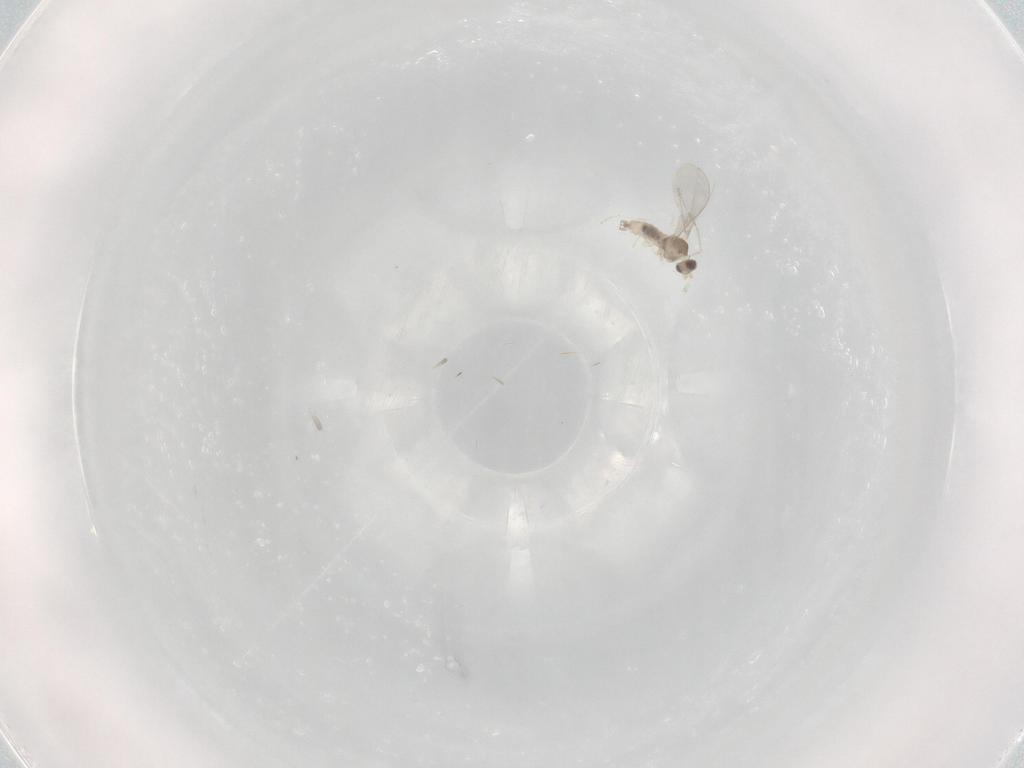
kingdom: Animalia
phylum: Arthropoda
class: Insecta
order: Diptera
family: Cecidomyiidae
